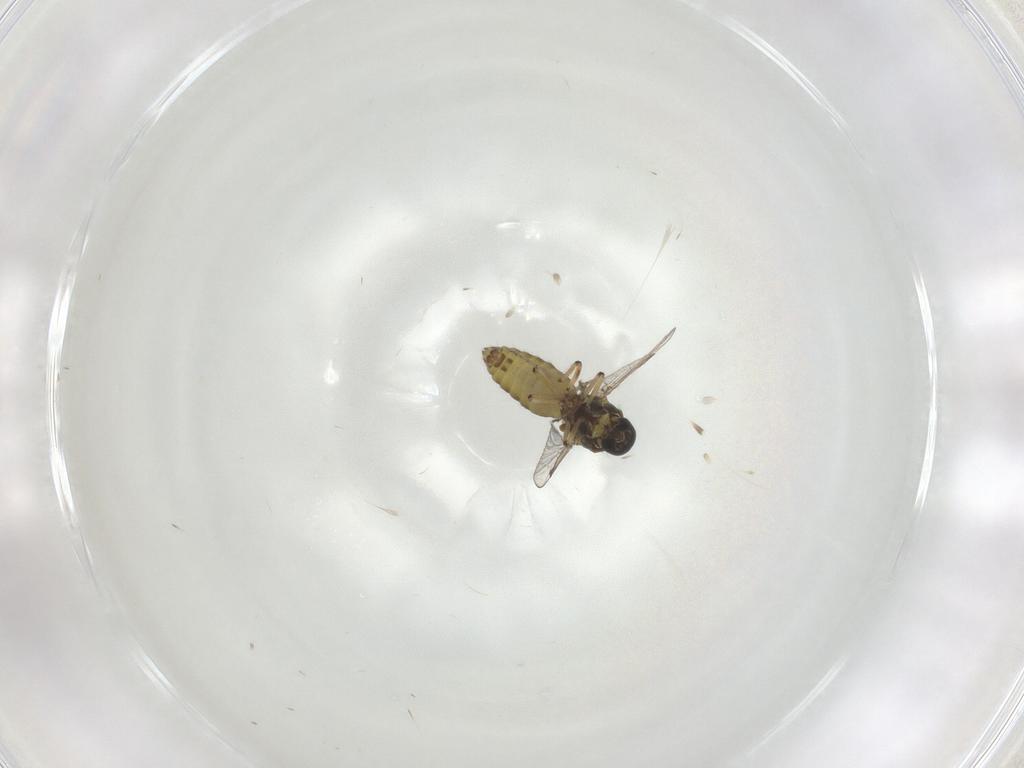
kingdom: Animalia
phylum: Arthropoda
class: Insecta
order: Diptera
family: Ceratopogonidae
